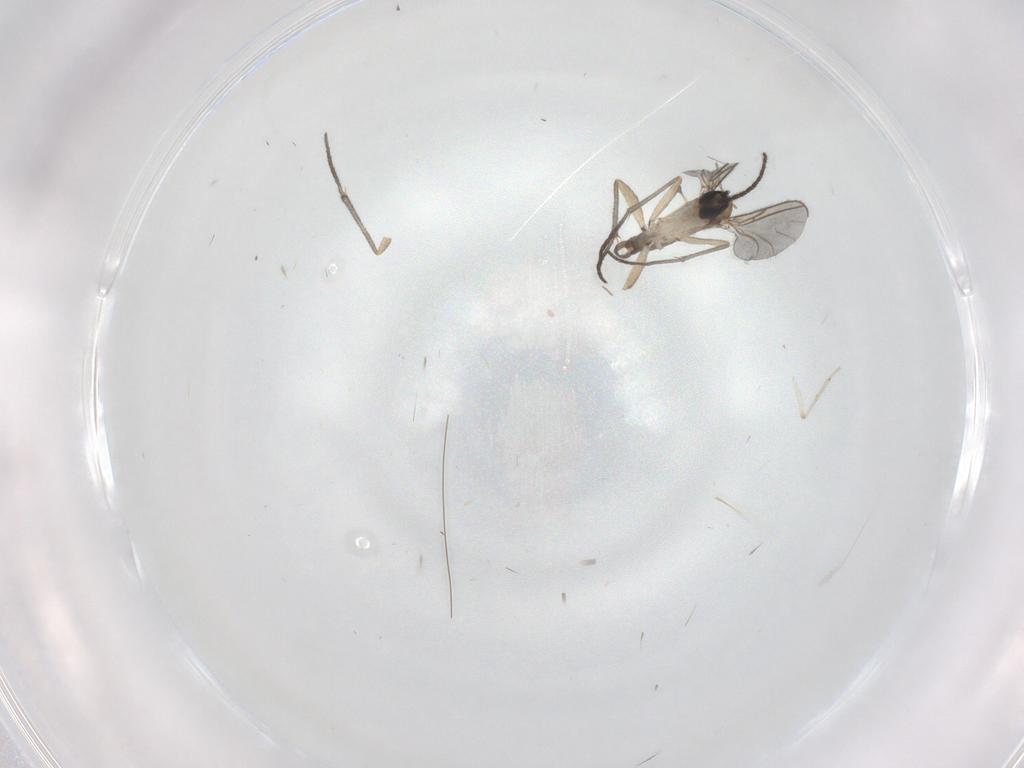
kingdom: Animalia
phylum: Arthropoda
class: Insecta
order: Diptera
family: Sciaridae
